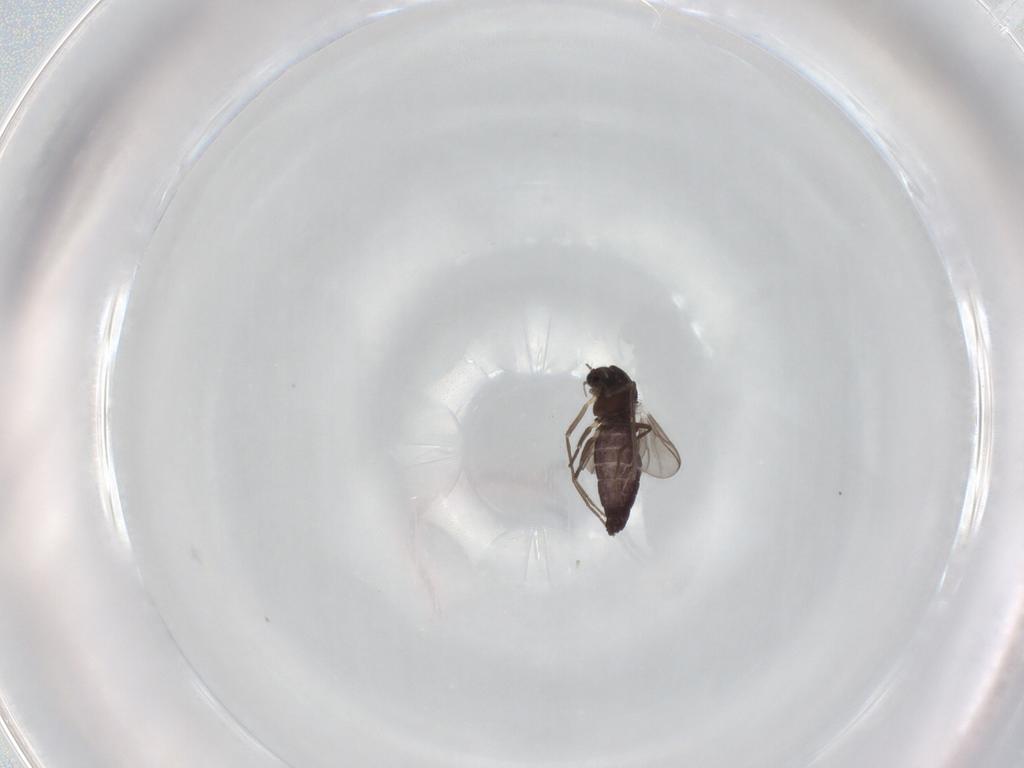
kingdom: Animalia
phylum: Arthropoda
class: Insecta
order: Diptera
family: Chironomidae
